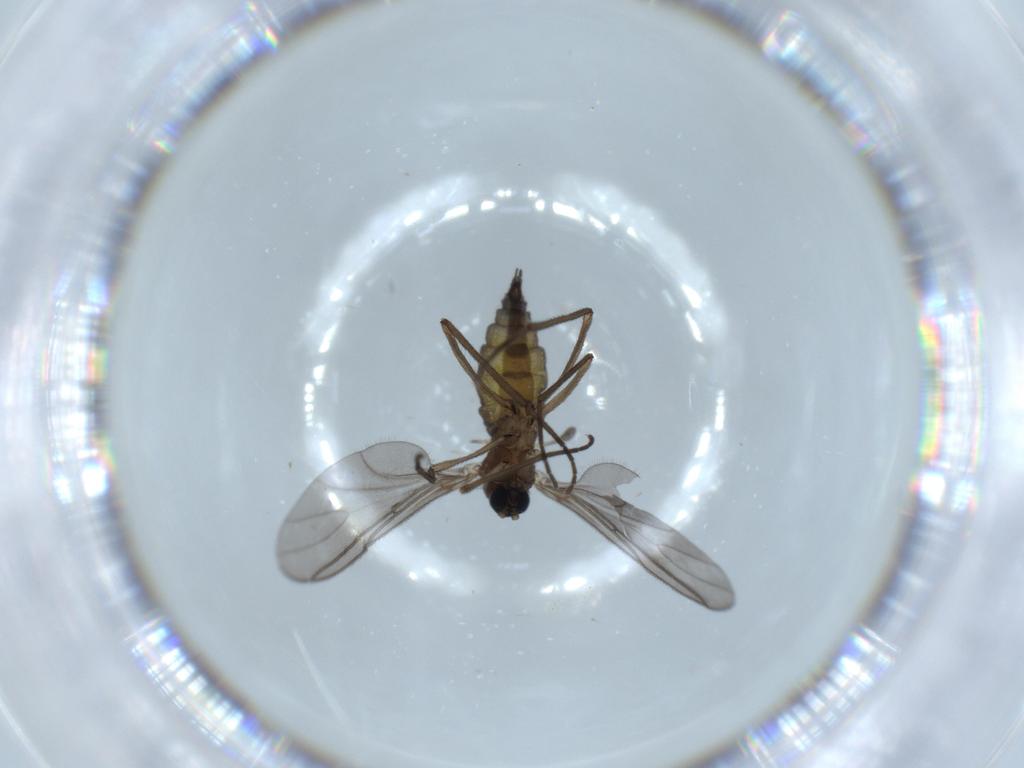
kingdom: Animalia
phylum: Arthropoda
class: Insecta
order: Diptera
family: Sciaridae
